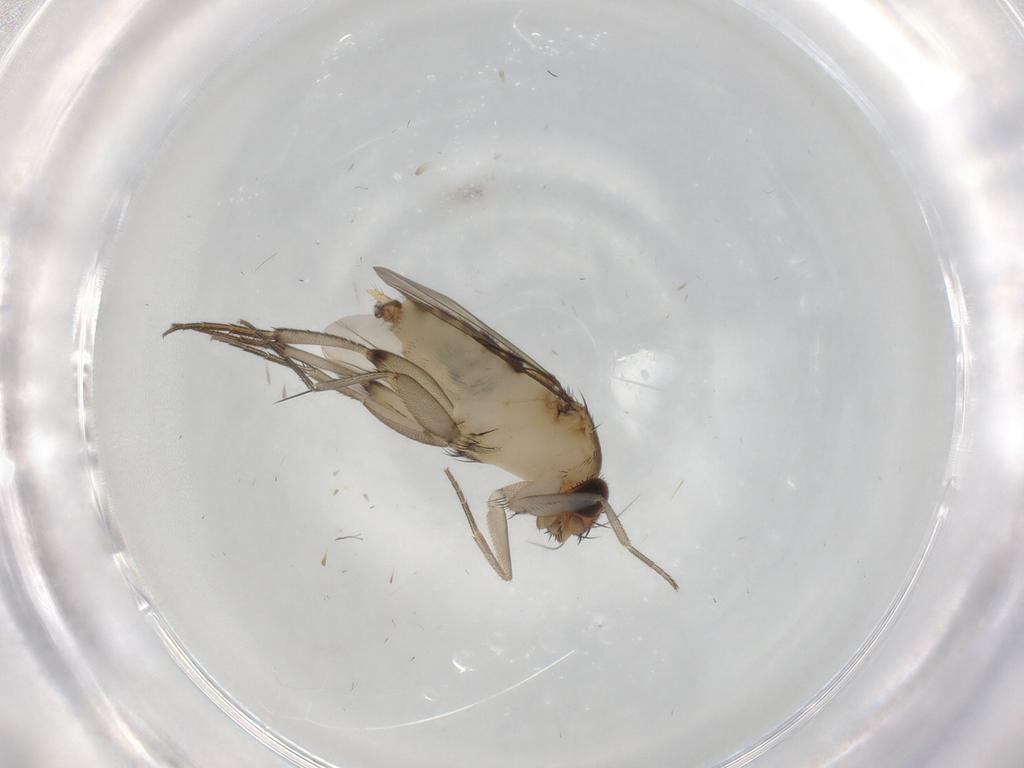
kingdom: Animalia
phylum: Arthropoda
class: Insecta
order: Diptera
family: Phoridae
